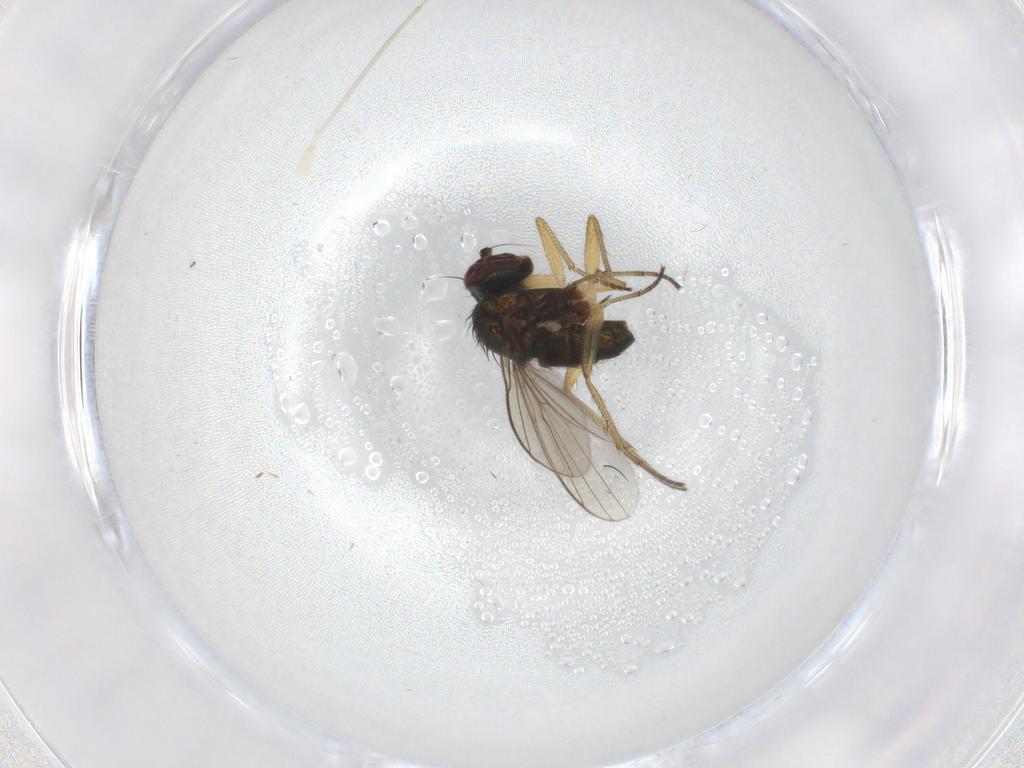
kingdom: Animalia
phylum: Arthropoda
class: Insecta
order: Diptera
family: Dolichopodidae
